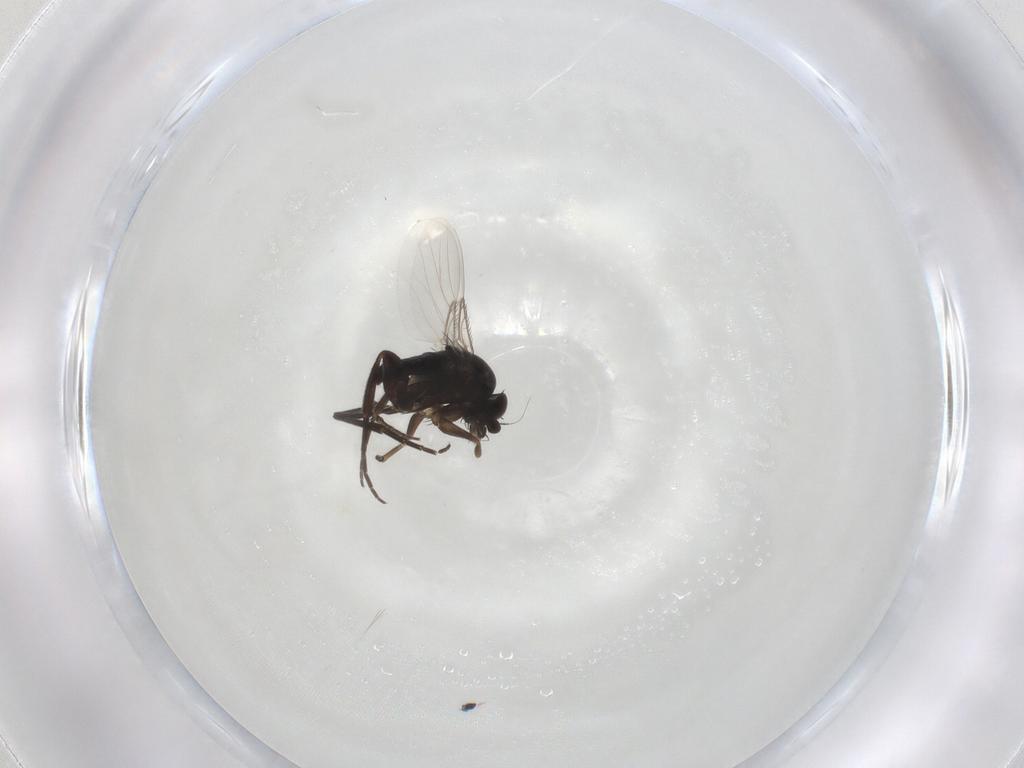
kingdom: Animalia
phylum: Arthropoda
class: Insecta
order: Diptera
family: Phoridae
